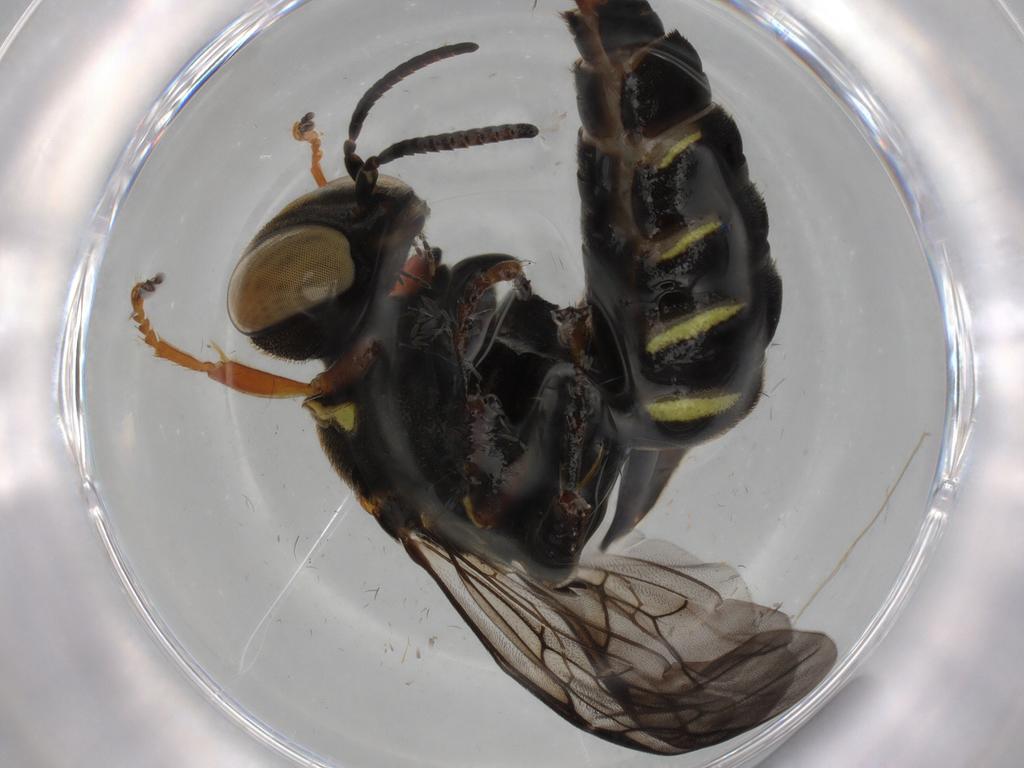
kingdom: Animalia
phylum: Arthropoda
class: Insecta
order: Hymenoptera
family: Crabronidae
